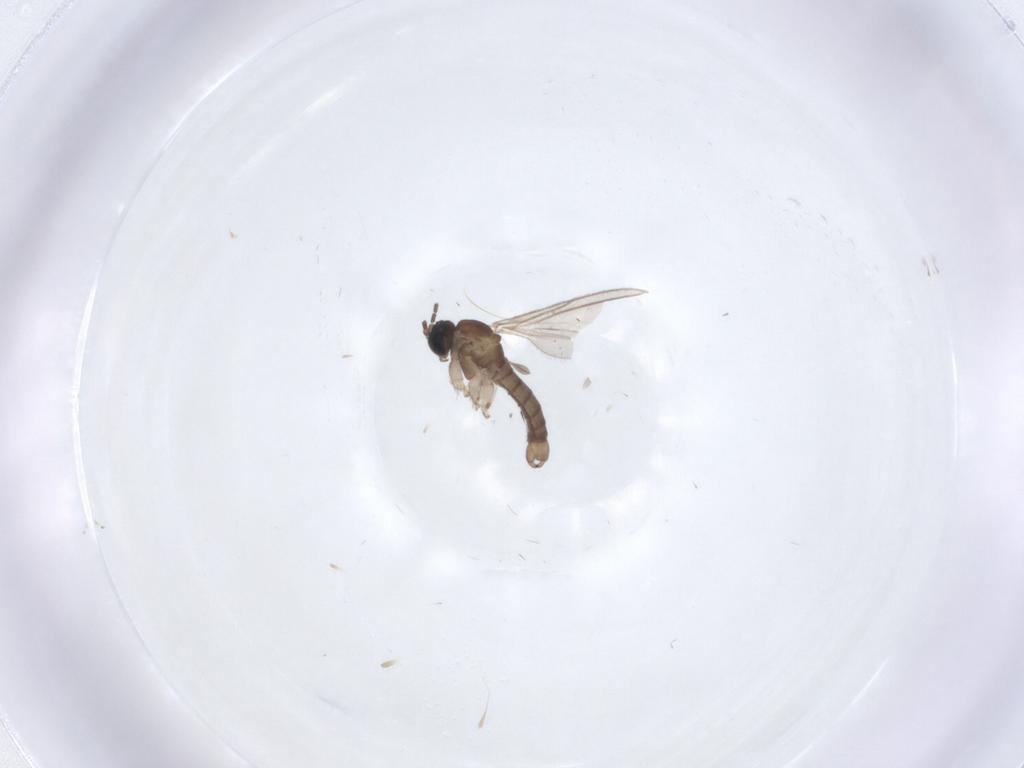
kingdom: Animalia
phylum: Arthropoda
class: Insecta
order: Diptera
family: Sciaridae
